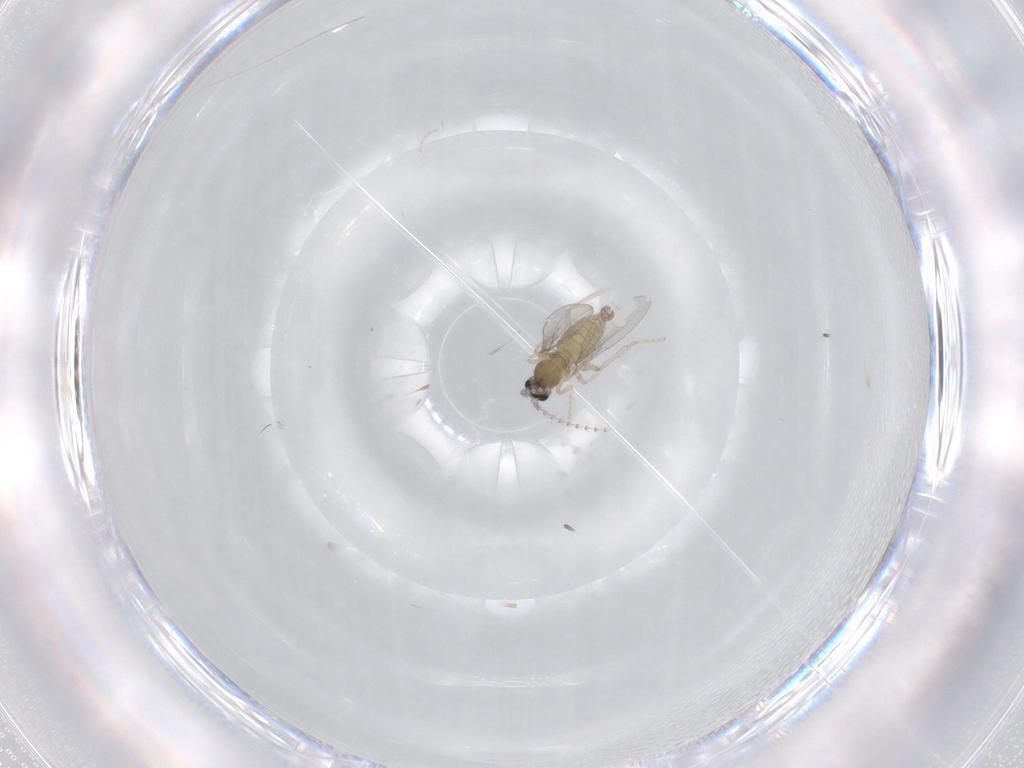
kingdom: Animalia
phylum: Arthropoda
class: Insecta
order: Diptera
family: Cecidomyiidae
